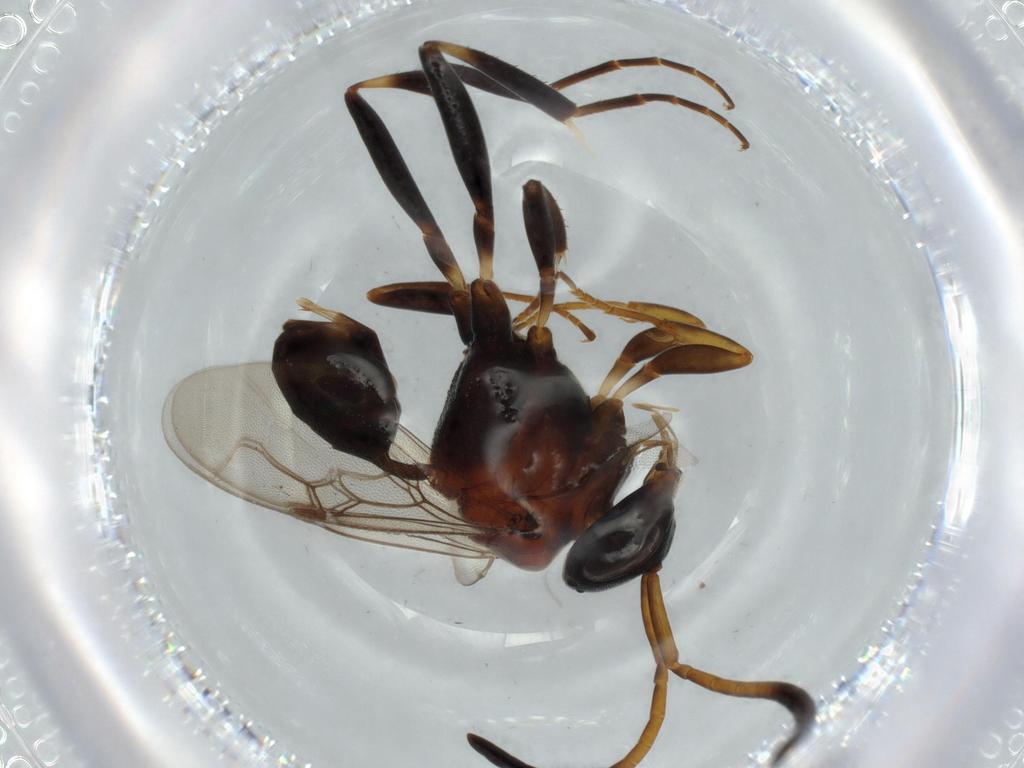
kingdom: Animalia
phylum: Arthropoda
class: Insecta
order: Hymenoptera
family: Evaniidae
